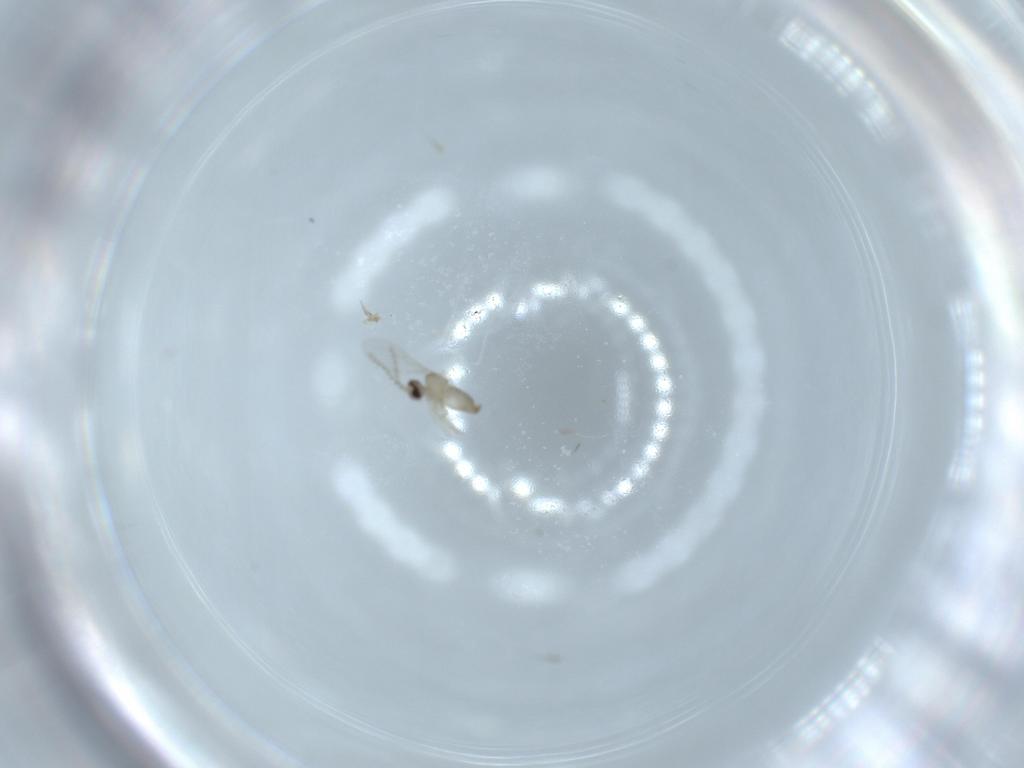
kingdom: Animalia
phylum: Arthropoda
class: Insecta
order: Diptera
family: Cecidomyiidae
